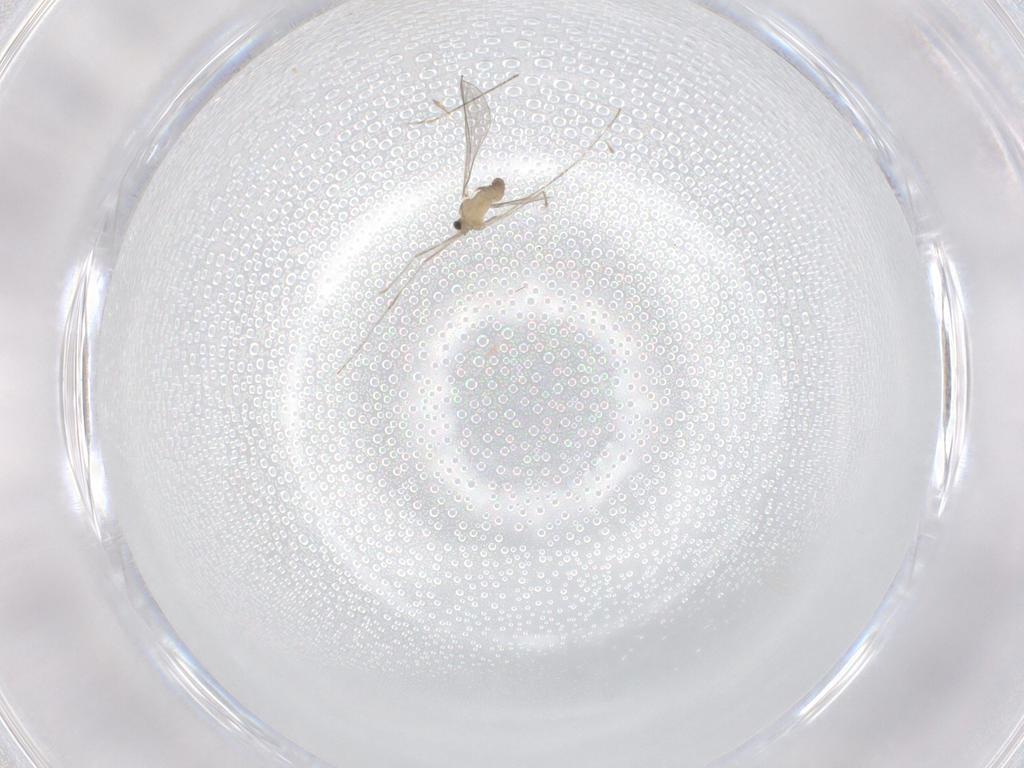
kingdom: Animalia
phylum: Arthropoda
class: Insecta
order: Diptera
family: Cecidomyiidae
